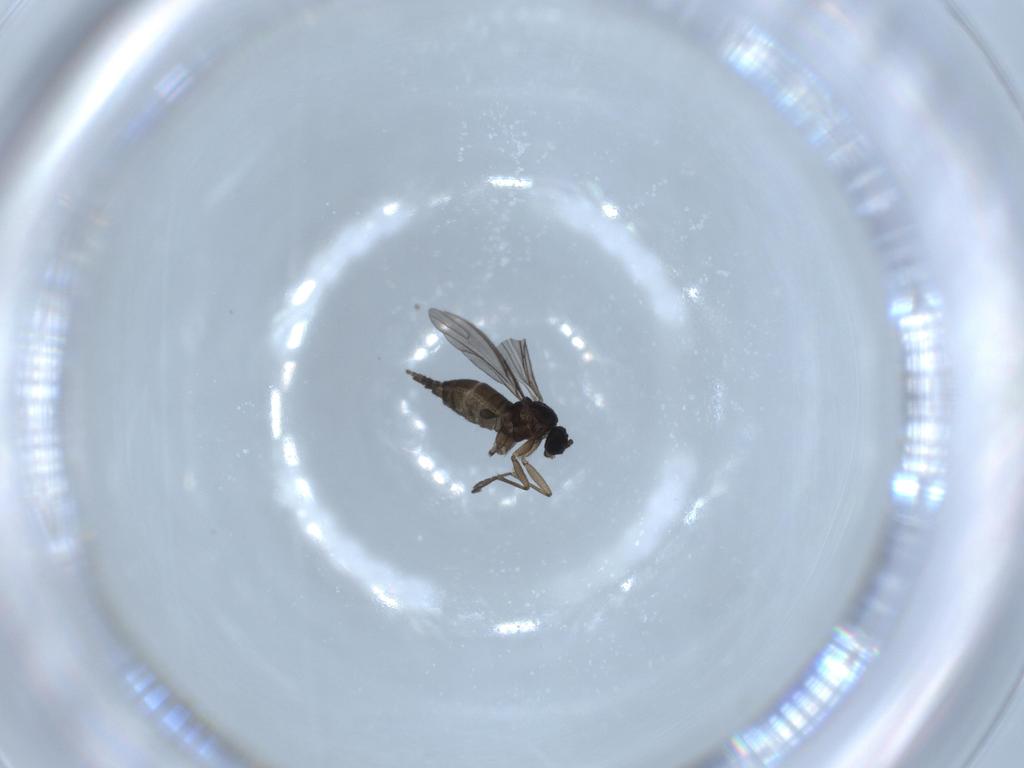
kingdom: Animalia
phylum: Arthropoda
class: Insecta
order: Diptera
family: Sciaridae
